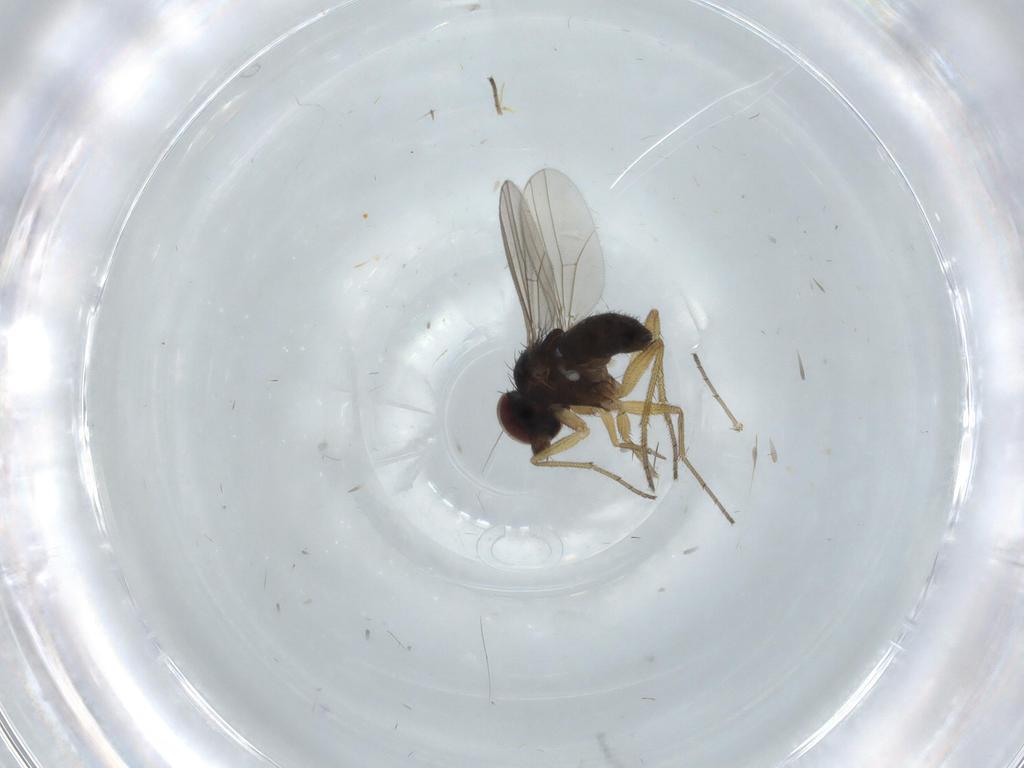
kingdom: Animalia
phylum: Arthropoda
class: Insecta
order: Diptera
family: Dolichopodidae
